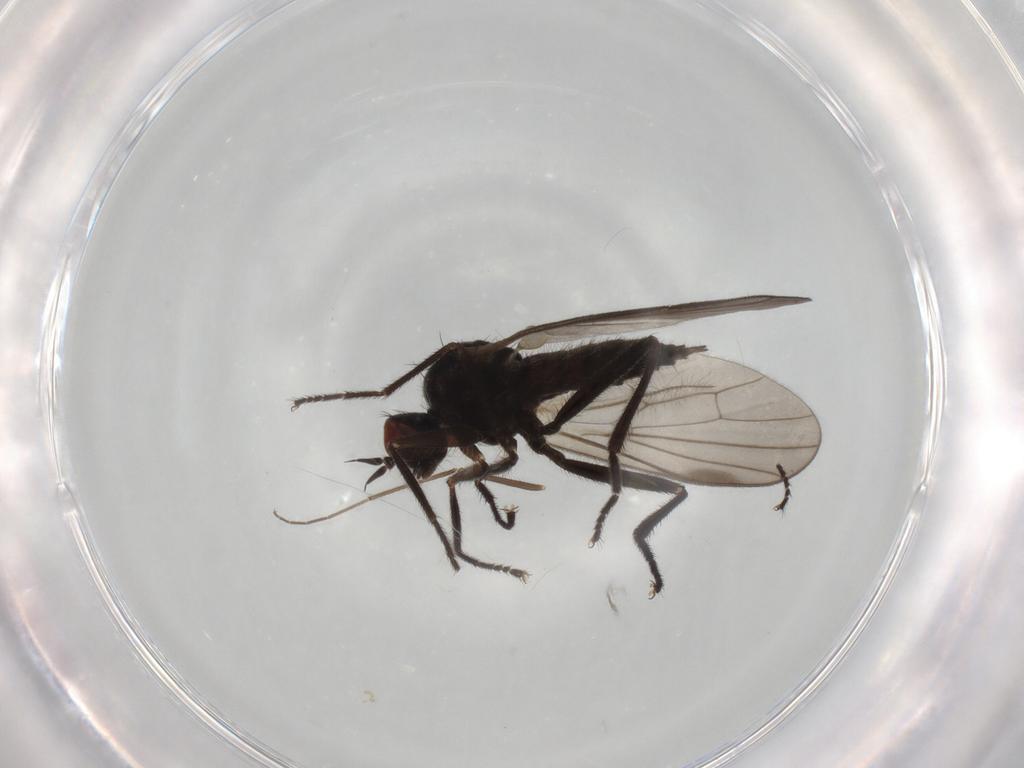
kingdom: Animalia
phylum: Arthropoda
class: Insecta
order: Diptera
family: Hybotidae
